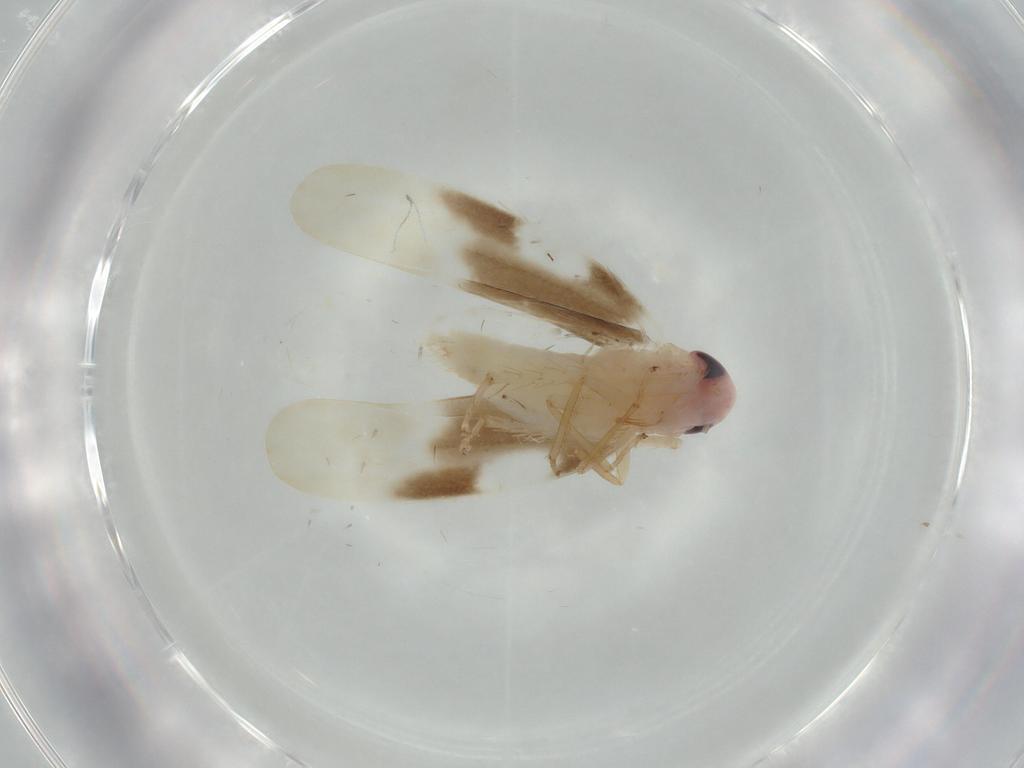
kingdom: Animalia
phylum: Arthropoda
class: Insecta
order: Hemiptera
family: Cicadellidae
